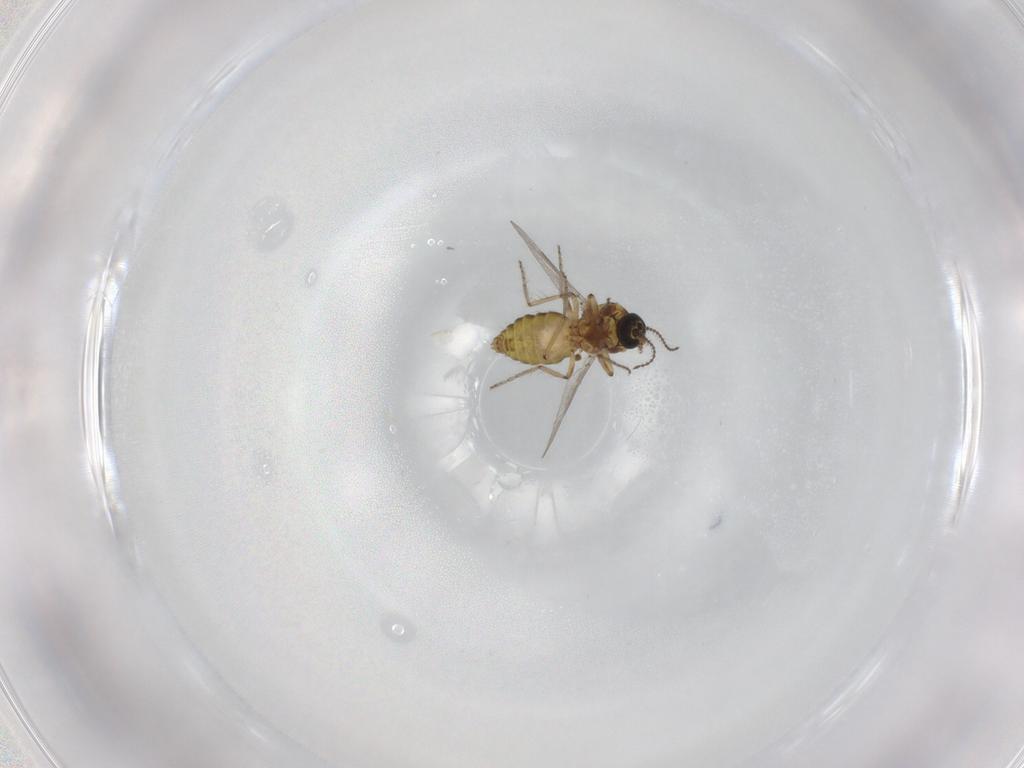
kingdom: Animalia
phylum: Arthropoda
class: Insecta
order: Diptera
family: Ceratopogonidae
